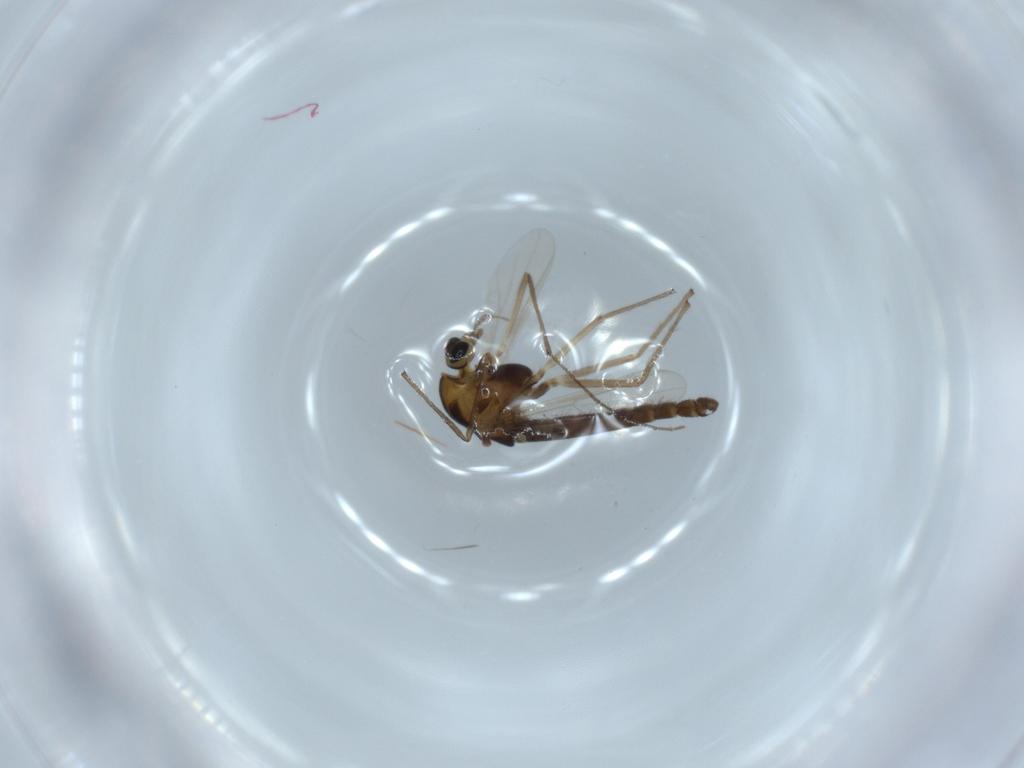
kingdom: Animalia
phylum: Arthropoda
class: Insecta
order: Diptera
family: Chironomidae
